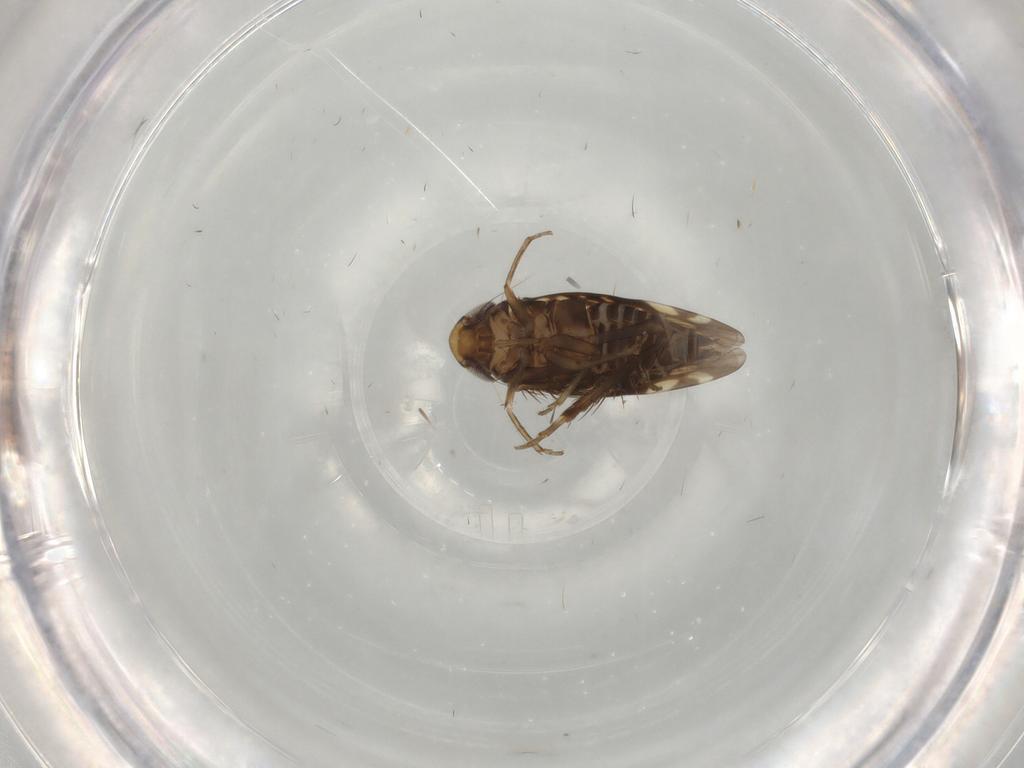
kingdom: Animalia
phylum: Arthropoda
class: Insecta
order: Hemiptera
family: Cicadellidae
